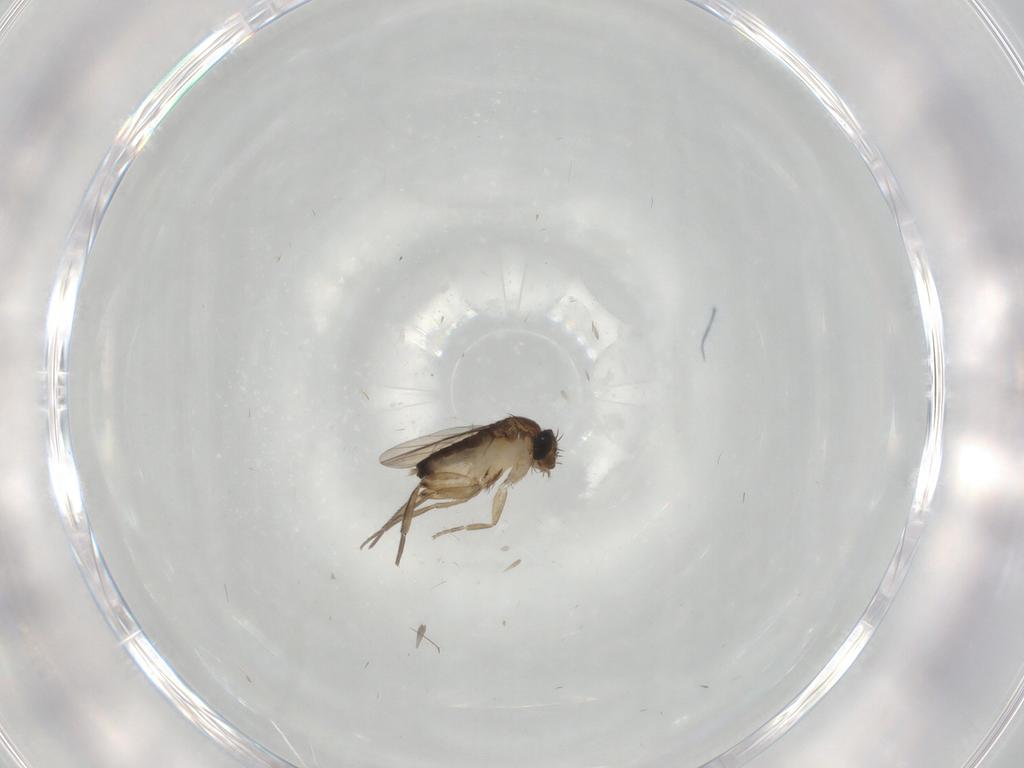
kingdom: Animalia
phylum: Arthropoda
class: Insecta
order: Diptera
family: Phoridae
